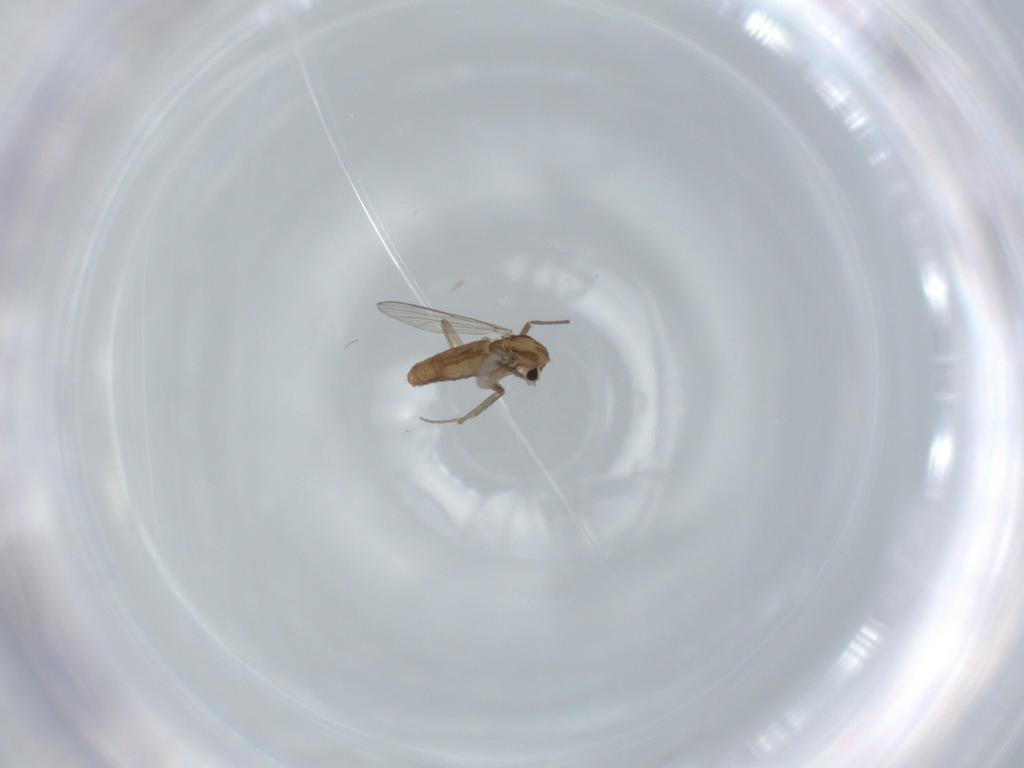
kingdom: Animalia
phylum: Arthropoda
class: Insecta
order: Diptera
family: Chironomidae
